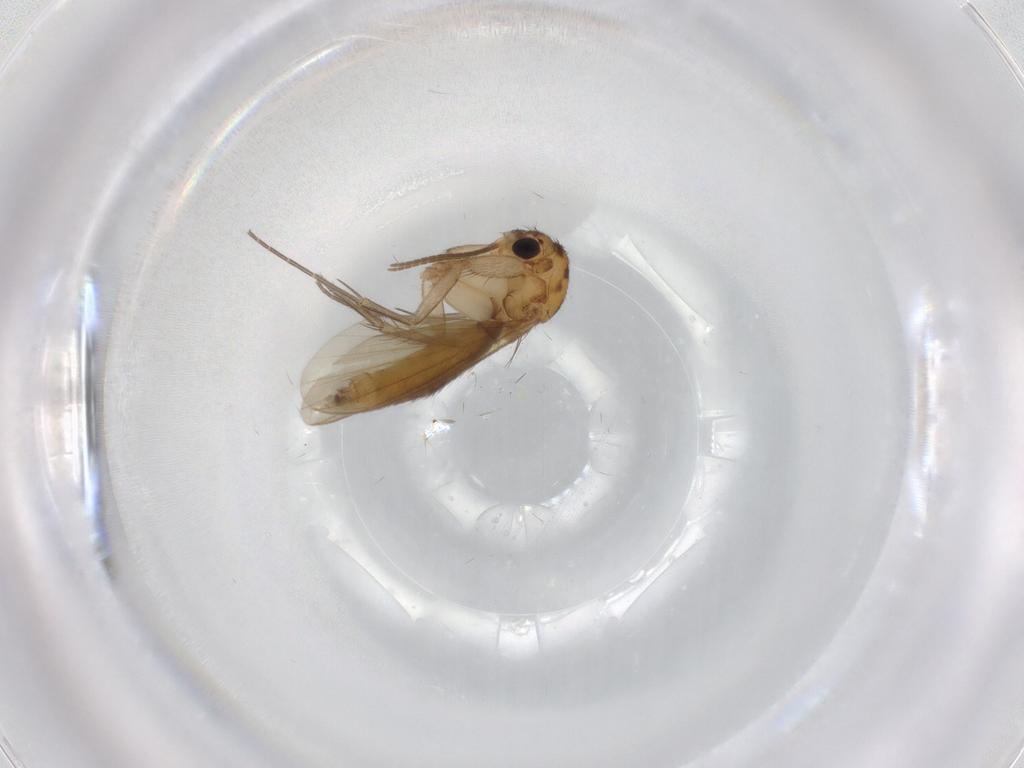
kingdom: Animalia
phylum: Arthropoda
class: Insecta
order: Diptera
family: Mycetophilidae
